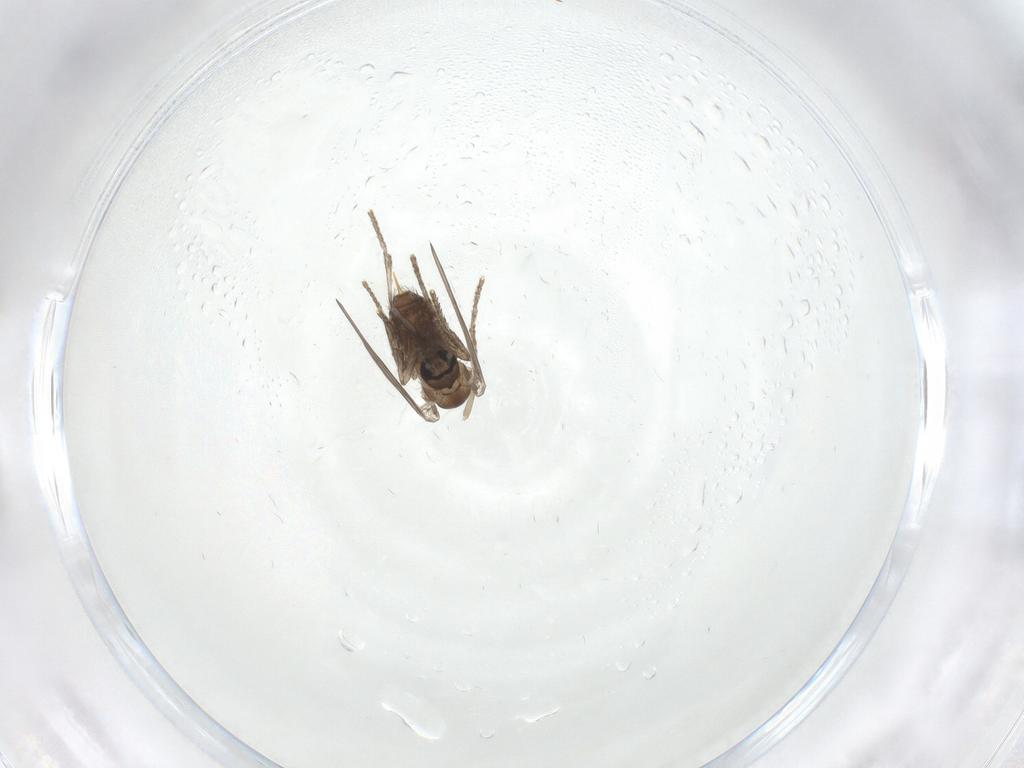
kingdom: Animalia
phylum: Arthropoda
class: Insecta
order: Diptera
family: Psychodidae
